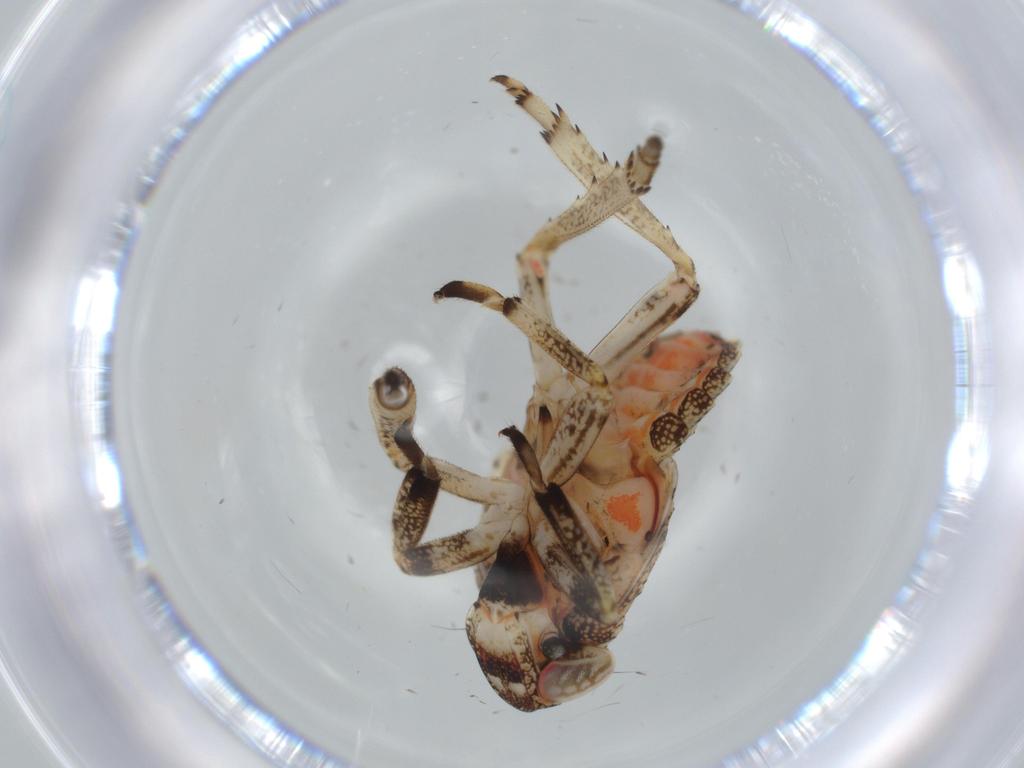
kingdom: Animalia
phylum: Arthropoda
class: Insecta
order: Hemiptera
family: Issidae
